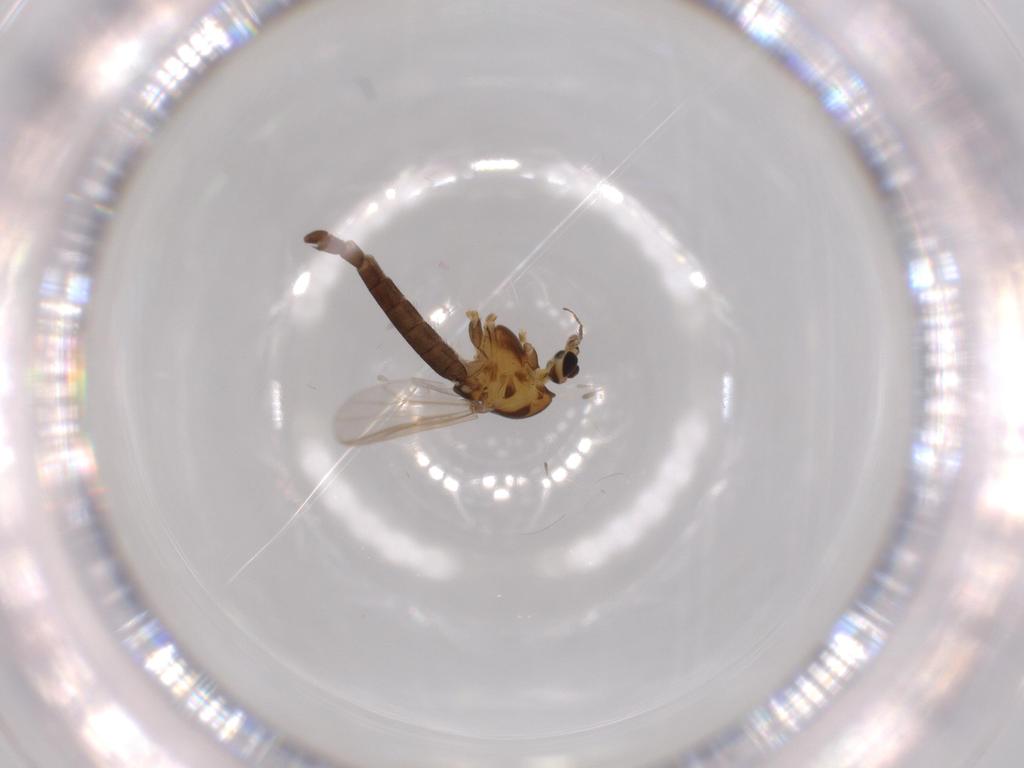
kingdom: Animalia
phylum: Arthropoda
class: Insecta
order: Diptera
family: Chironomidae
